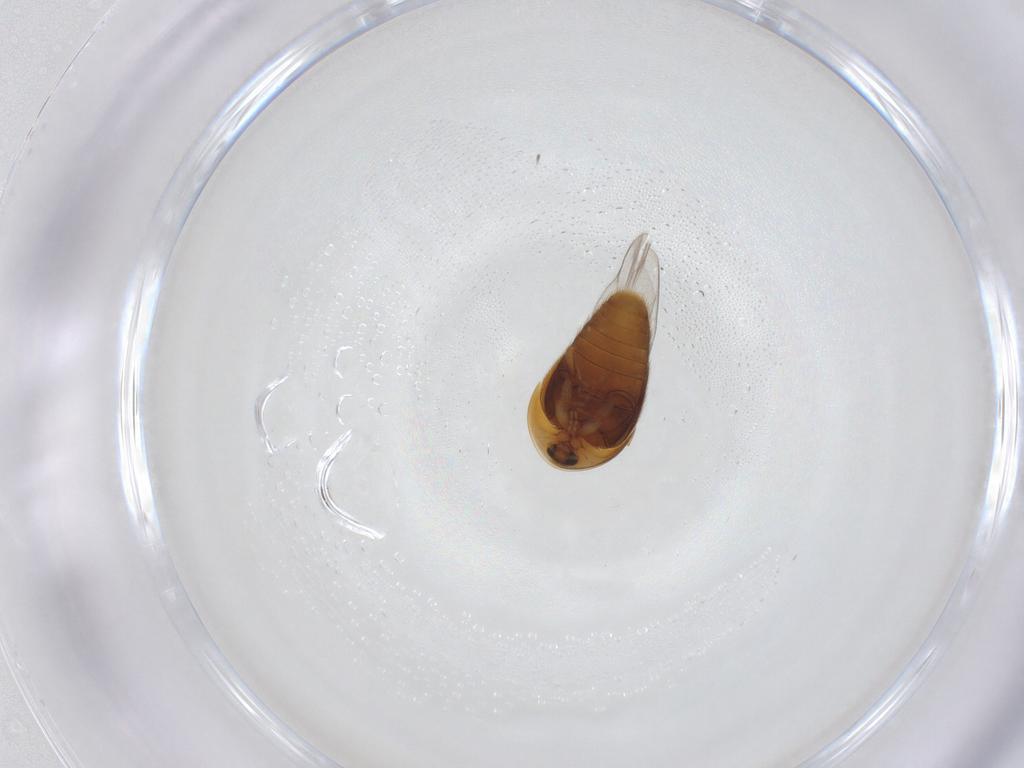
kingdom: Animalia
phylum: Arthropoda
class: Insecta
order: Coleoptera
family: Corylophidae
